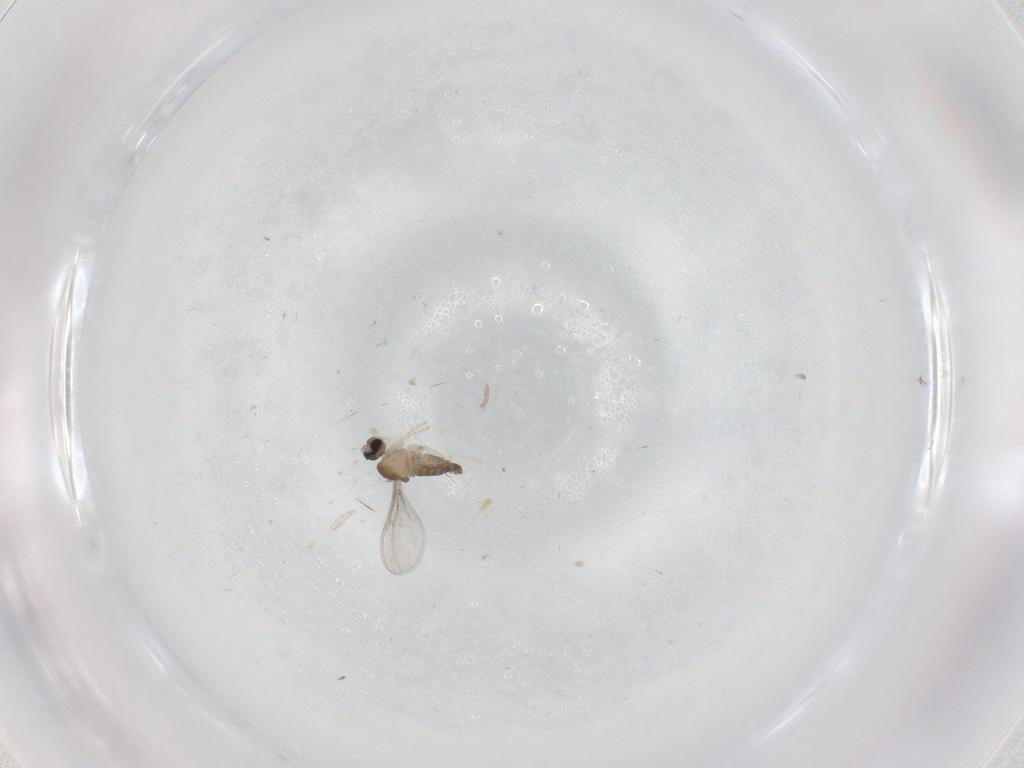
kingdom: Animalia
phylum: Arthropoda
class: Insecta
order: Diptera
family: Cecidomyiidae
